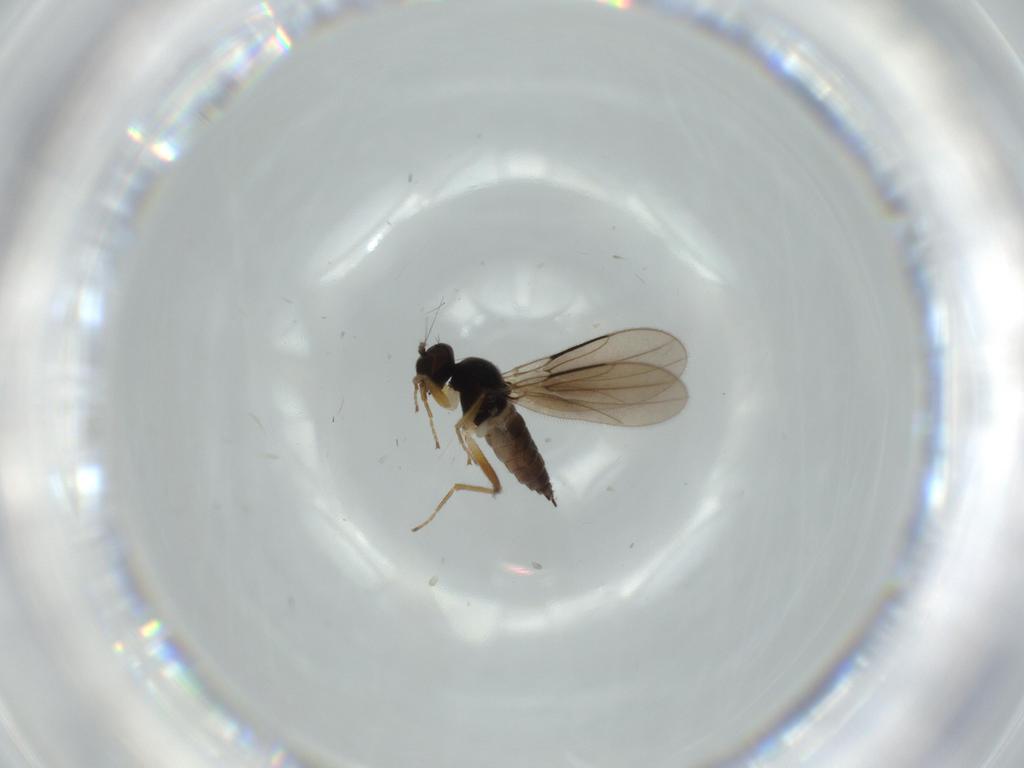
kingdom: Animalia
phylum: Arthropoda
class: Insecta
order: Diptera
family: Hybotidae
